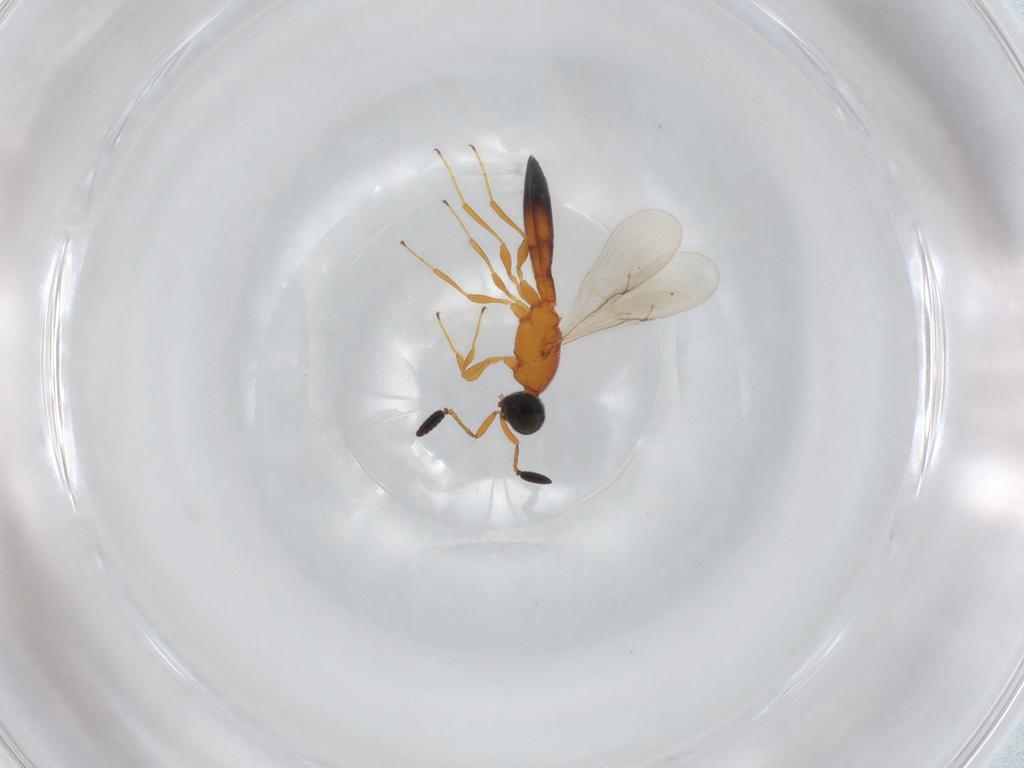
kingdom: Animalia
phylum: Arthropoda
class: Insecta
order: Hymenoptera
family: Scelionidae
